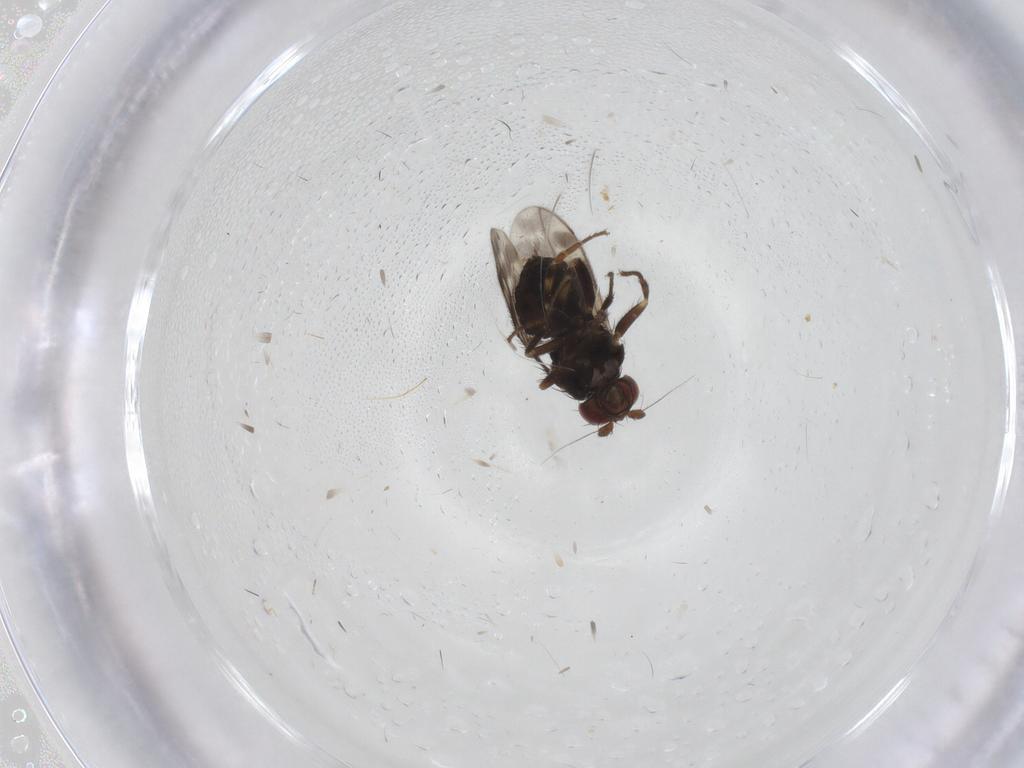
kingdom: Animalia
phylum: Arthropoda
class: Insecta
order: Diptera
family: Sphaeroceridae
